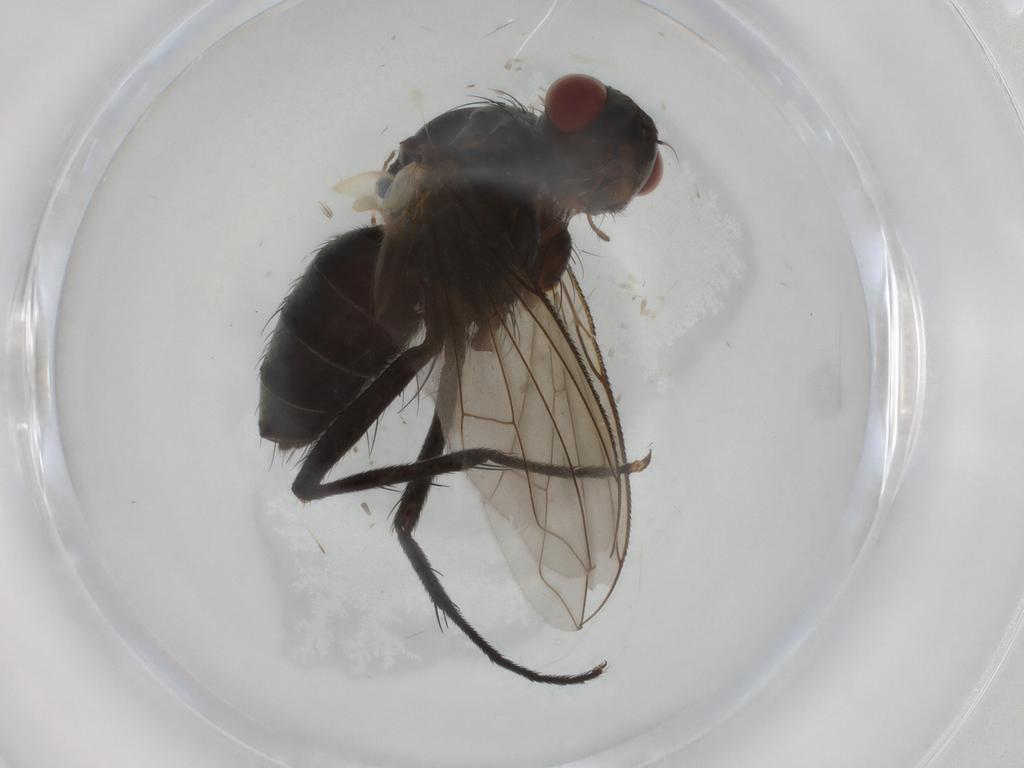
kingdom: Animalia
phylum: Arthropoda
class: Insecta
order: Diptera
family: Tachinidae
